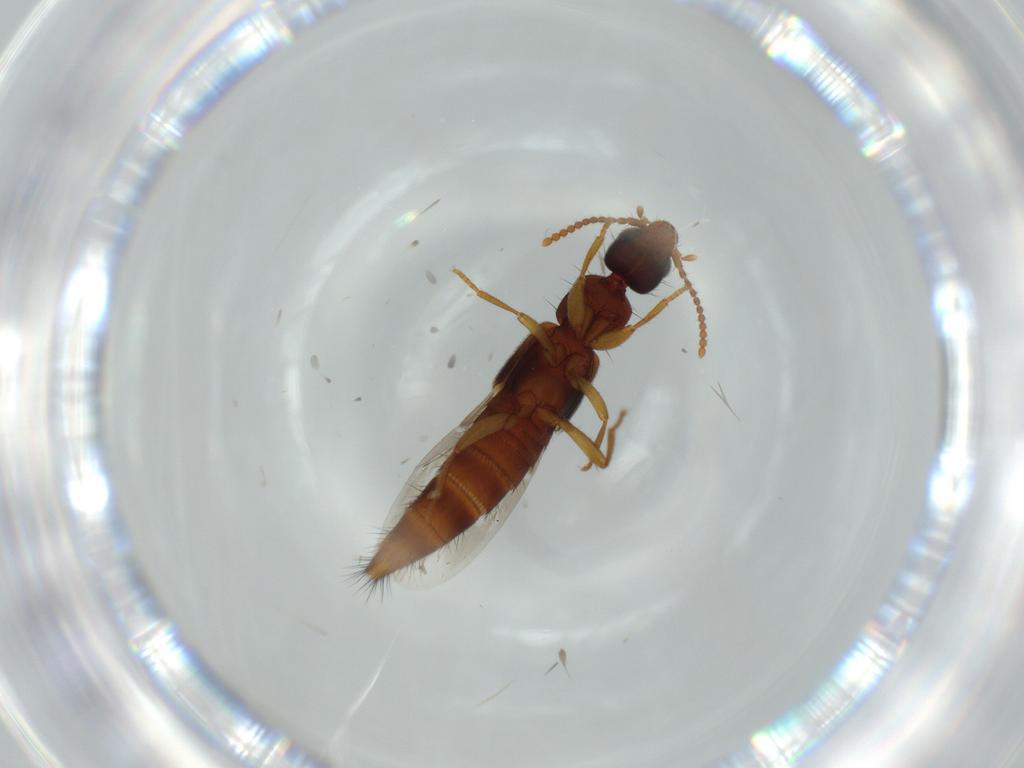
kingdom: Animalia
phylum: Arthropoda
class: Insecta
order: Coleoptera
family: Staphylinidae
